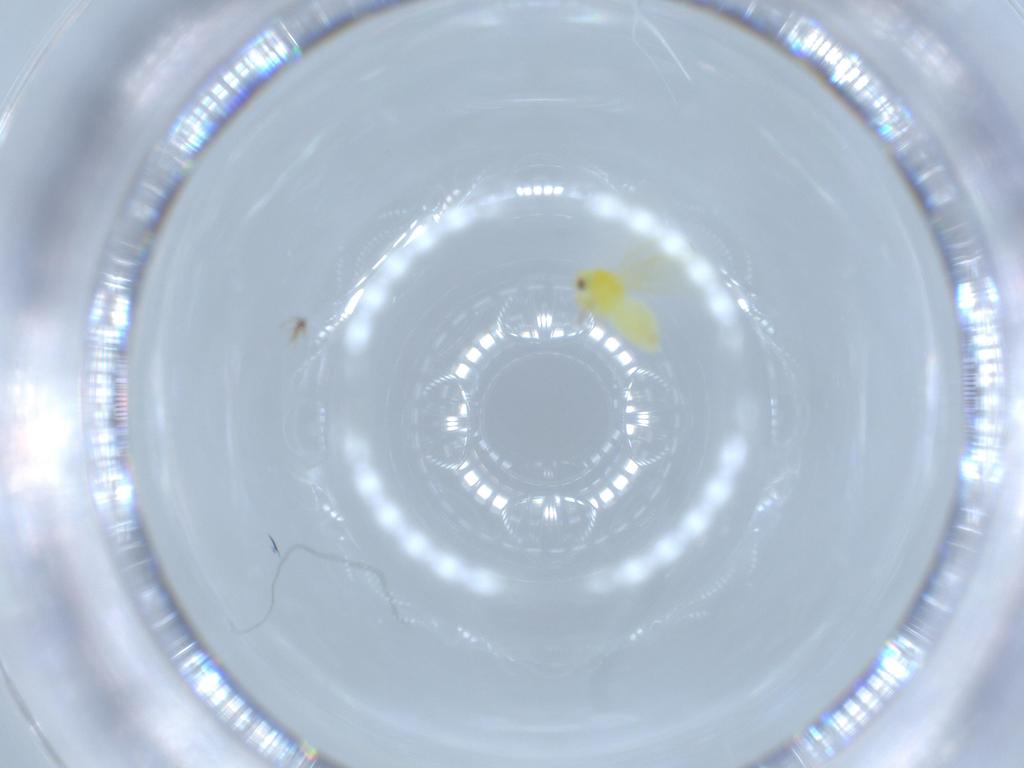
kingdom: Animalia
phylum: Arthropoda
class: Insecta
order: Hemiptera
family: Aleyrodidae
